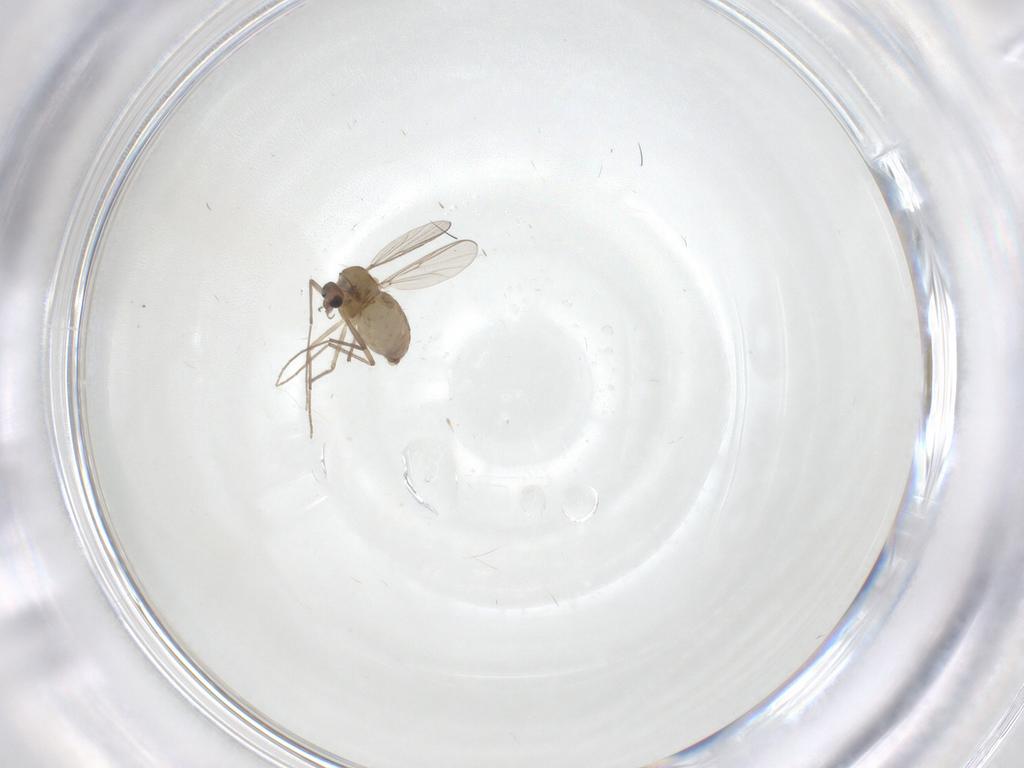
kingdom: Animalia
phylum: Arthropoda
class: Insecta
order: Diptera
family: Chironomidae
